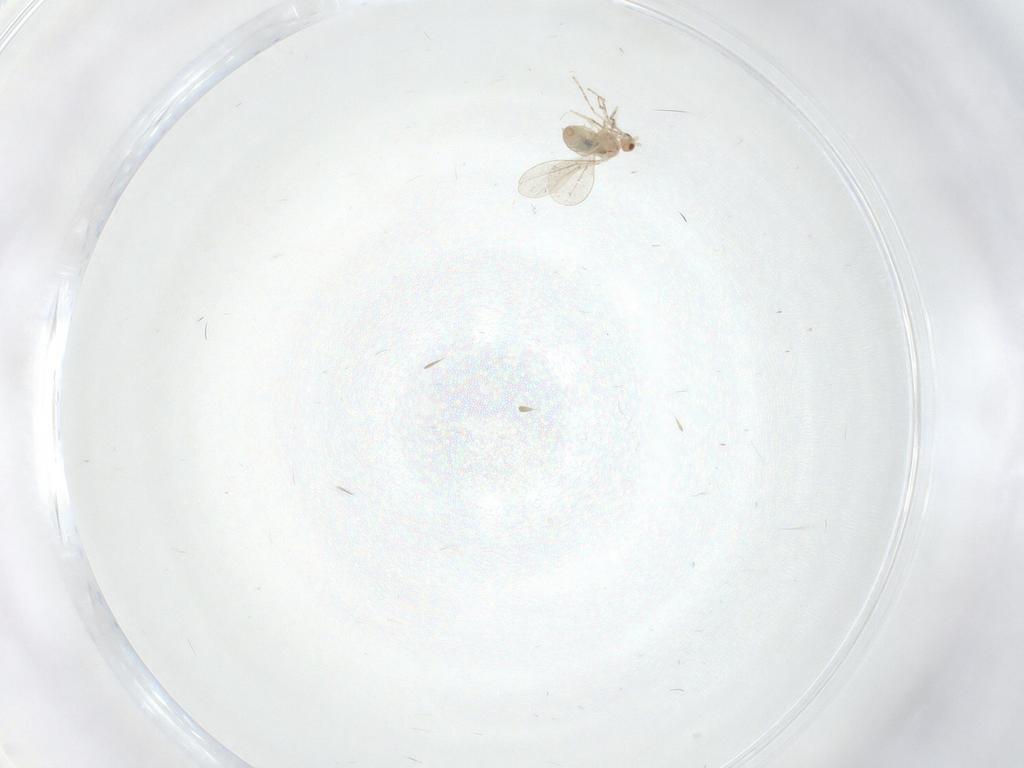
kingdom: Animalia
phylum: Arthropoda
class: Insecta
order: Diptera
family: Cecidomyiidae
